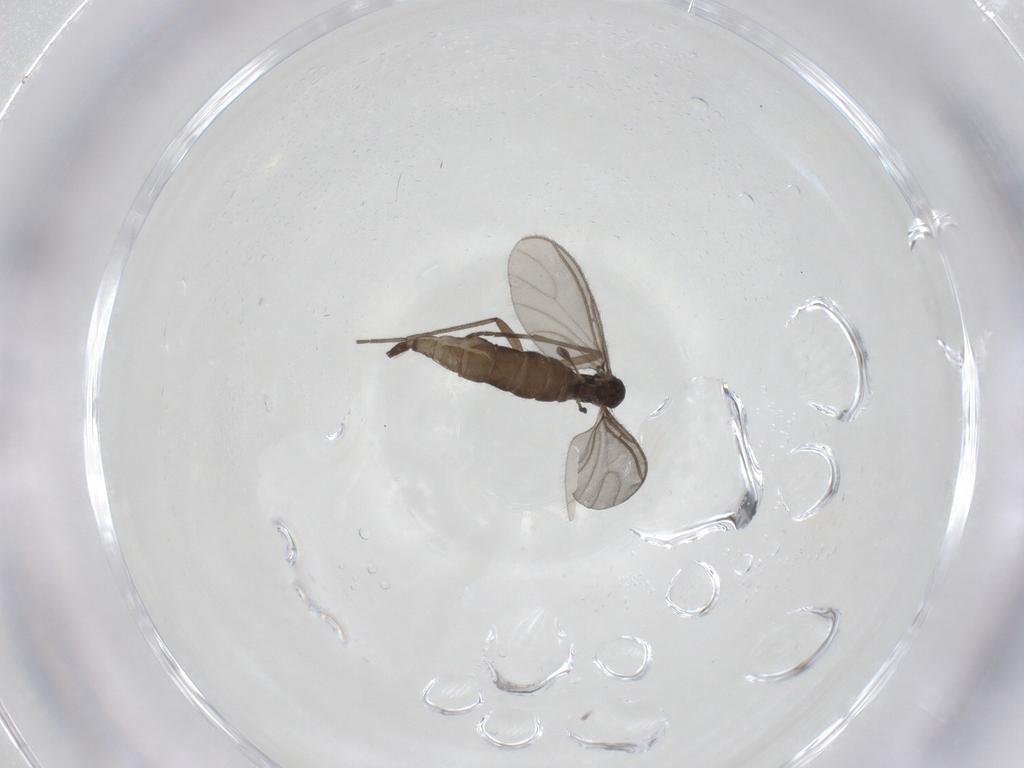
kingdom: Animalia
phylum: Arthropoda
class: Insecta
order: Diptera
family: Sciaridae
